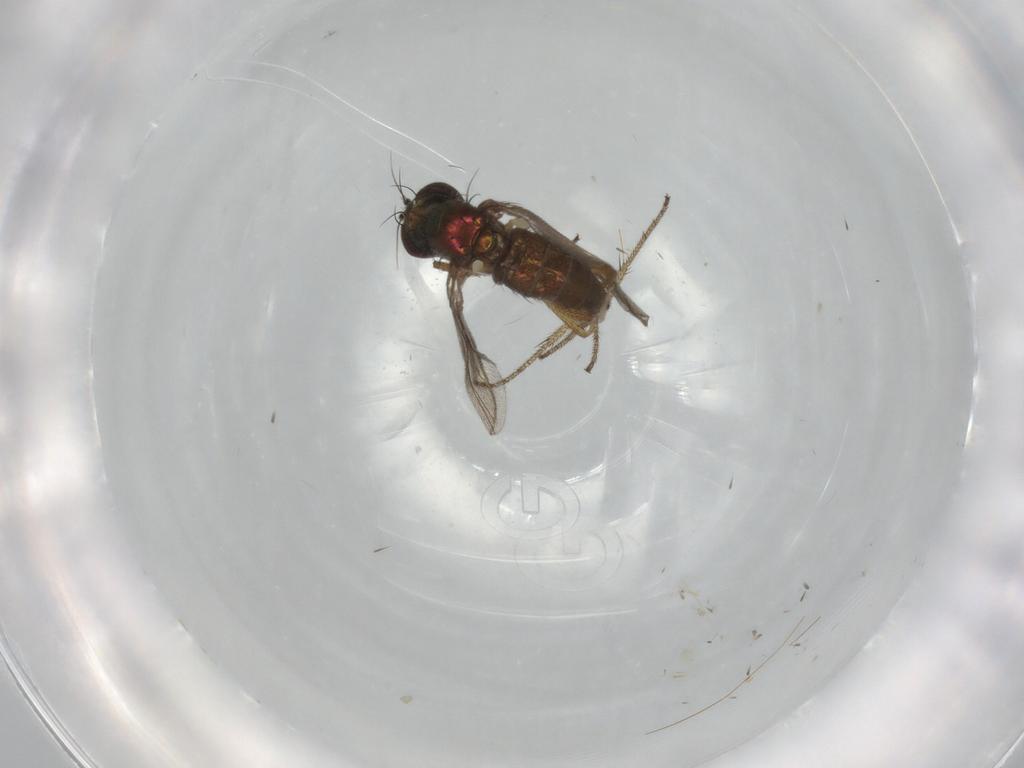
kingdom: Animalia
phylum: Arthropoda
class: Insecta
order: Diptera
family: Dolichopodidae
